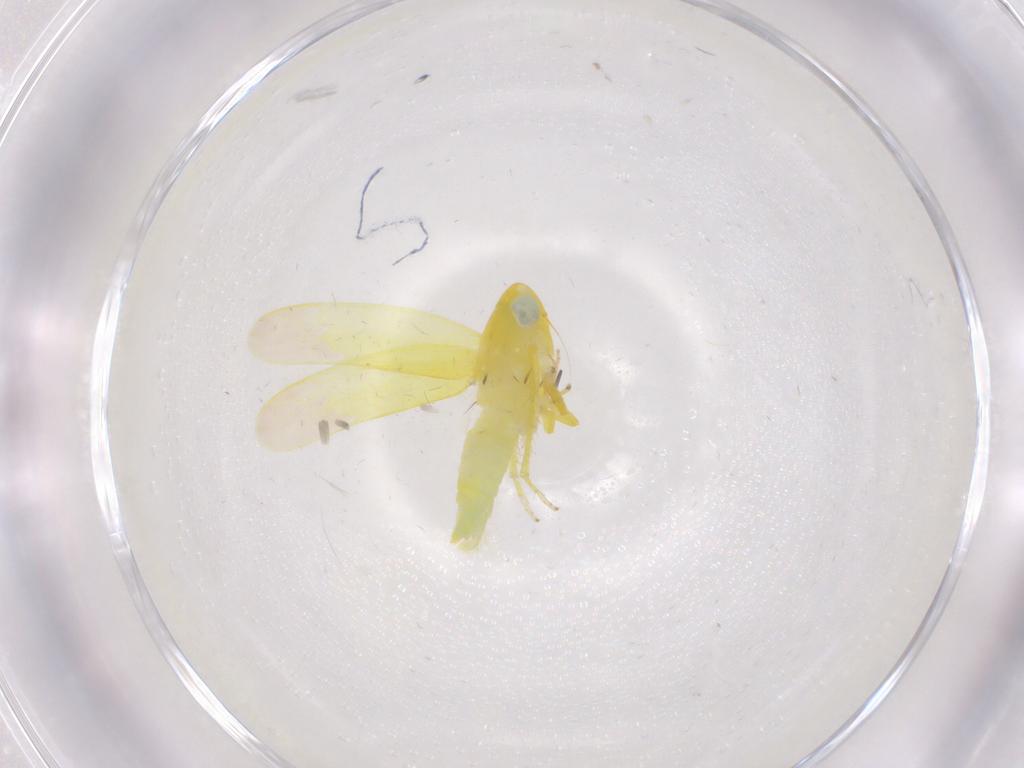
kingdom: Animalia
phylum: Arthropoda
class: Insecta
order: Hemiptera
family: Cicadellidae
